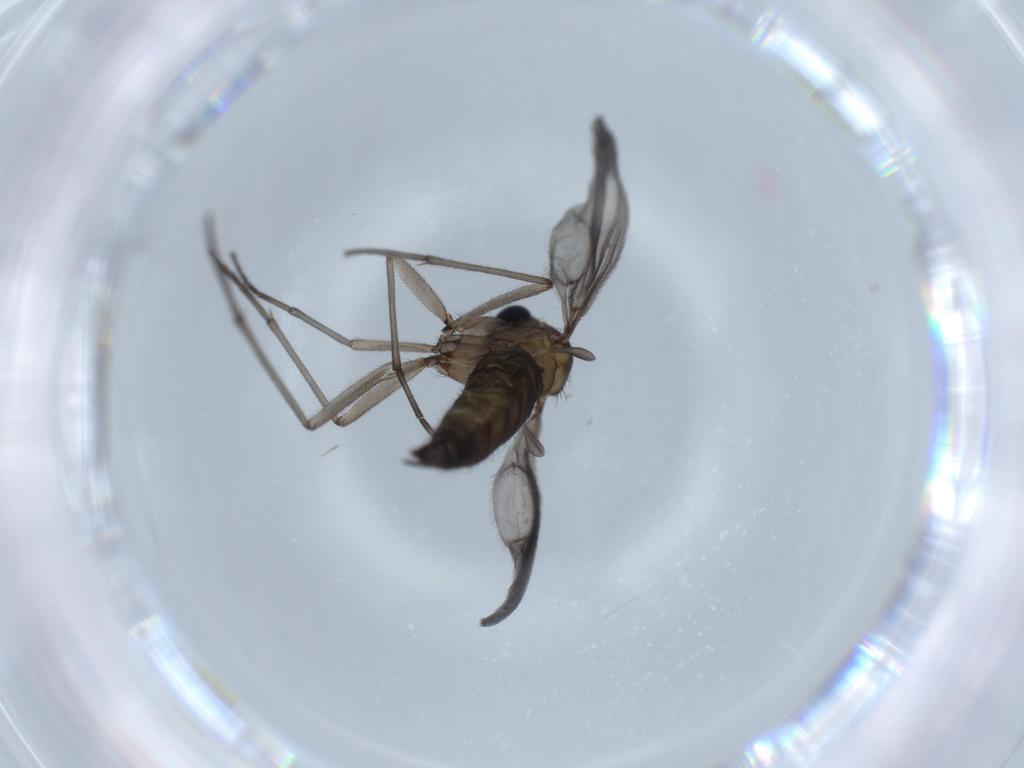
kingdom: Animalia
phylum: Arthropoda
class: Insecta
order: Diptera
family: Sciaridae
